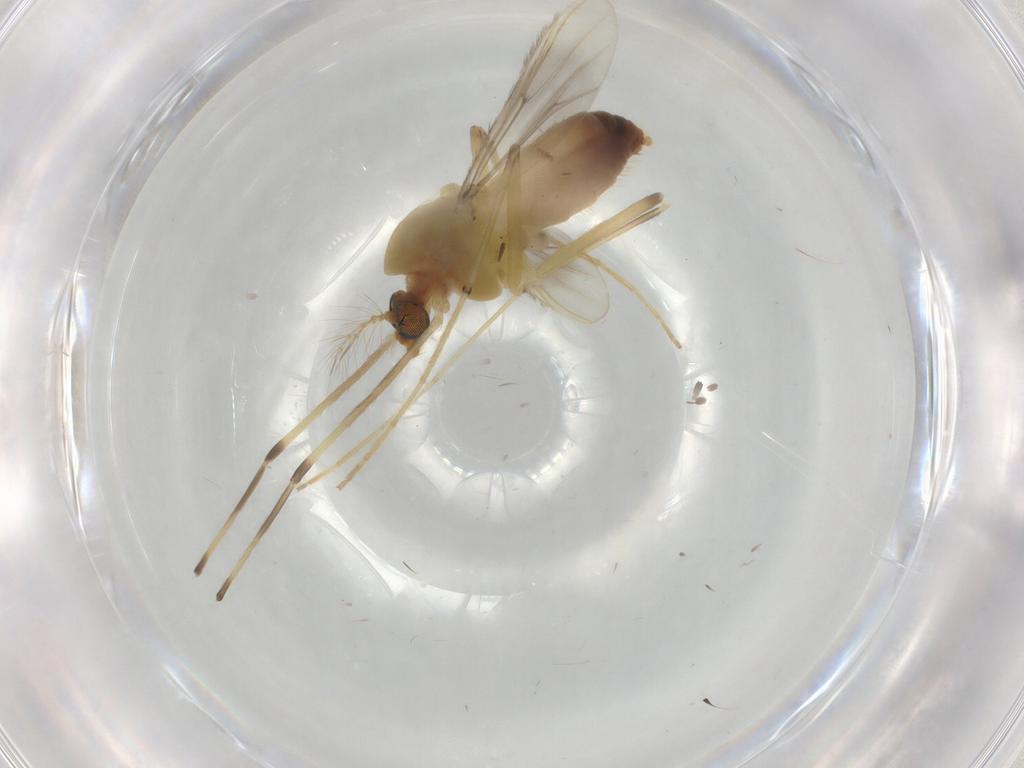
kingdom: Animalia
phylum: Arthropoda
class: Insecta
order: Diptera
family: Chironomidae
